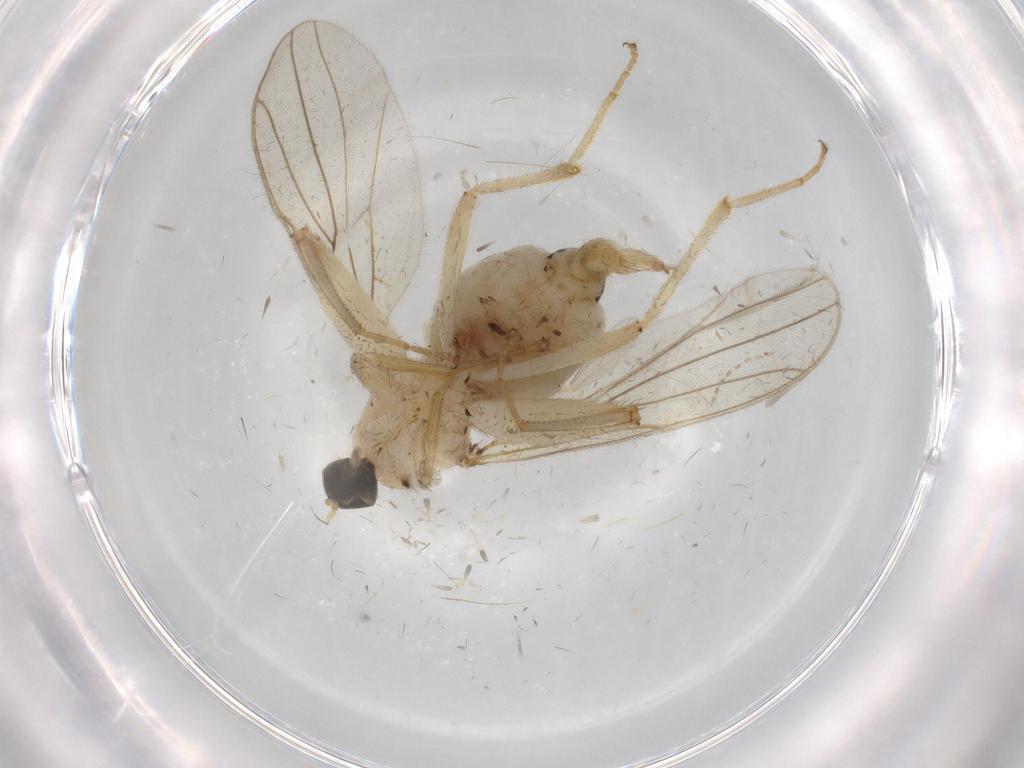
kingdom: Animalia
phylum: Arthropoda
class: Insecta
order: Diptera
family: Hybotidae
